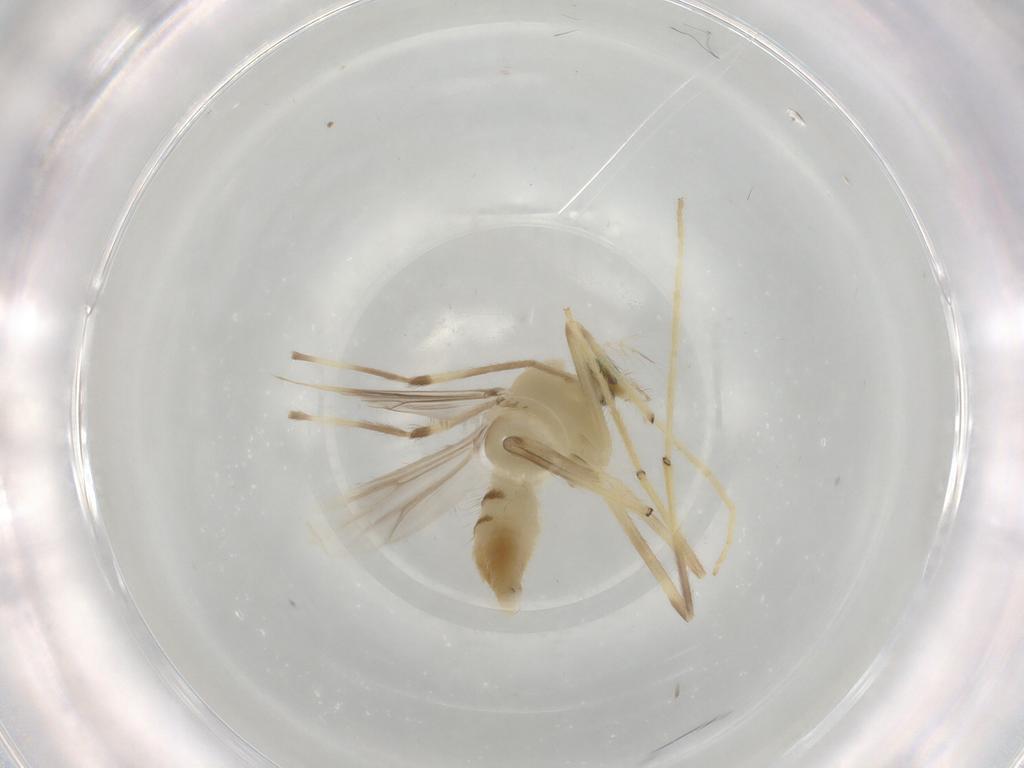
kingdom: Animalia
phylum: Arthropoda
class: Insecta
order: Diptera
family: Chironomidae
